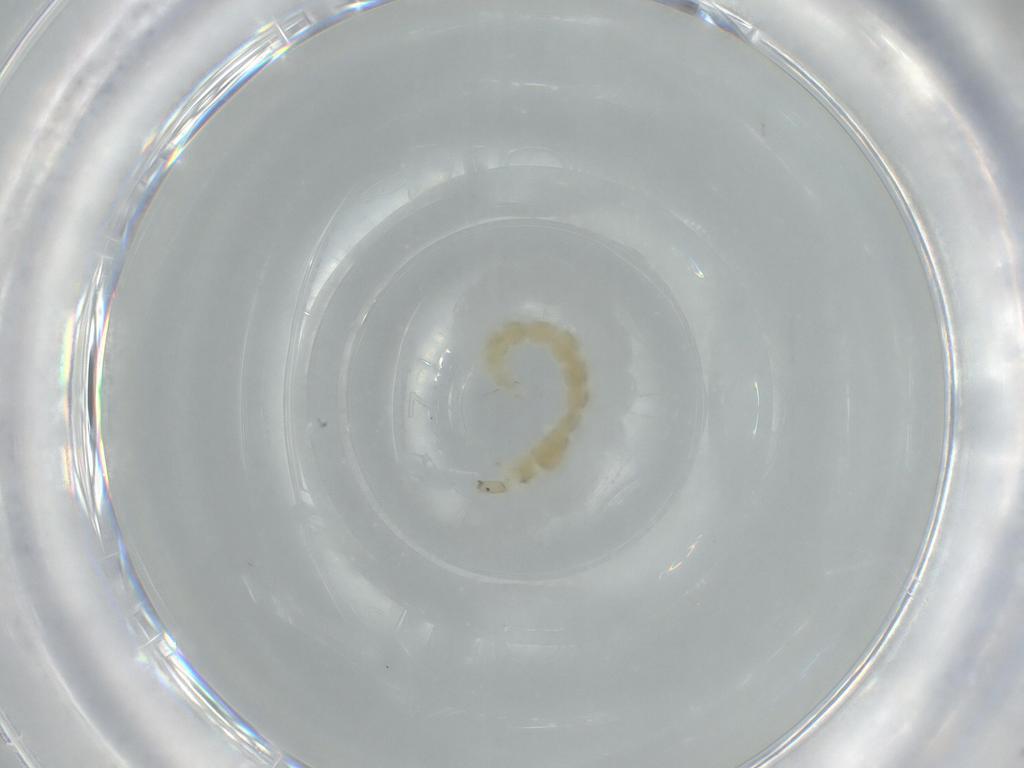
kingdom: Animalia
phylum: Arthropoda
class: Insecta
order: Diptera
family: Chironomidae
